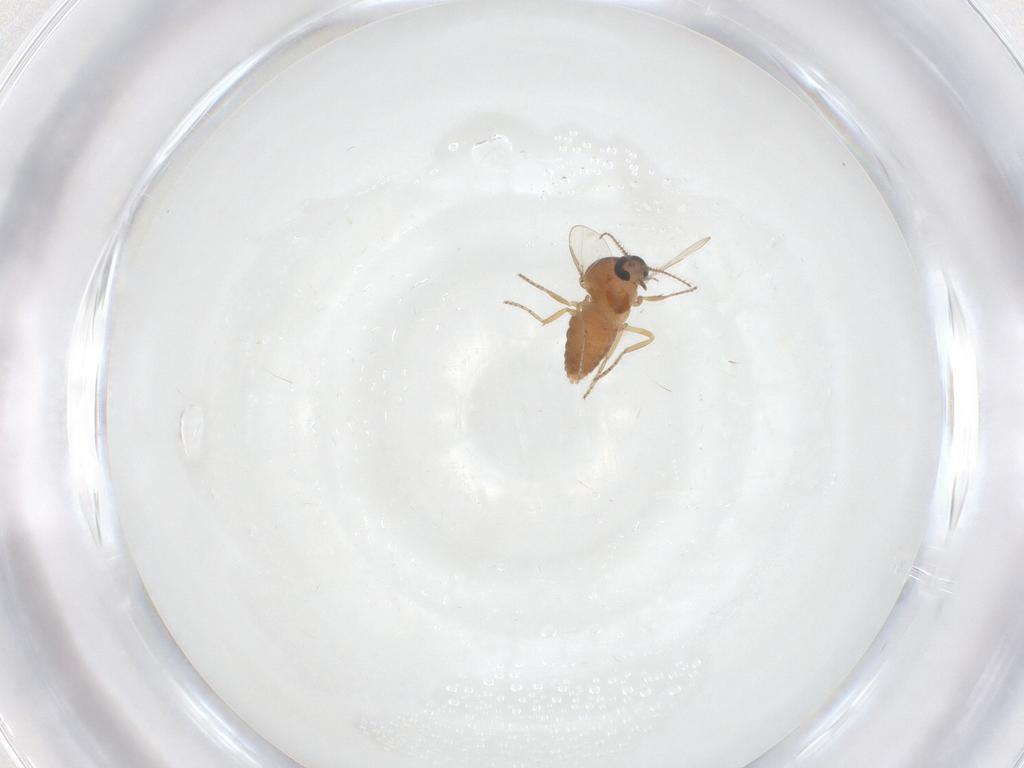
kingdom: Animalia
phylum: Arthropoda
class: Insecta
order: Diptera
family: Ceratopogonidae
